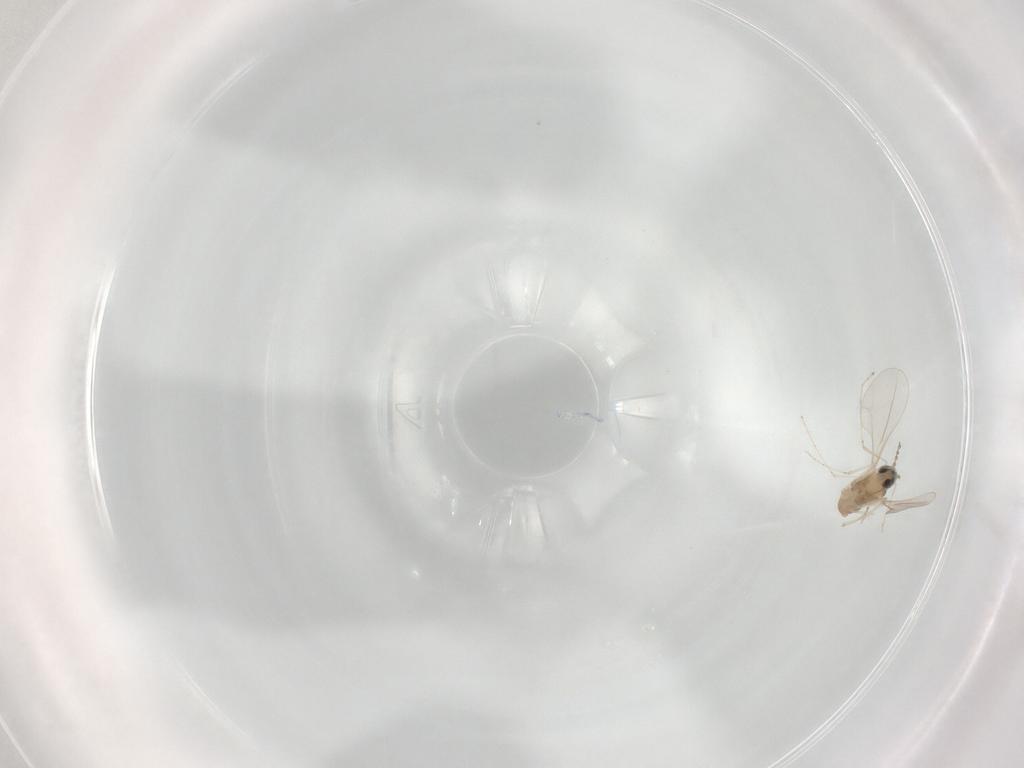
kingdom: Animalia
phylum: Arthropoda
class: Insecta
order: Diptera
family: Cecidomyiidae
